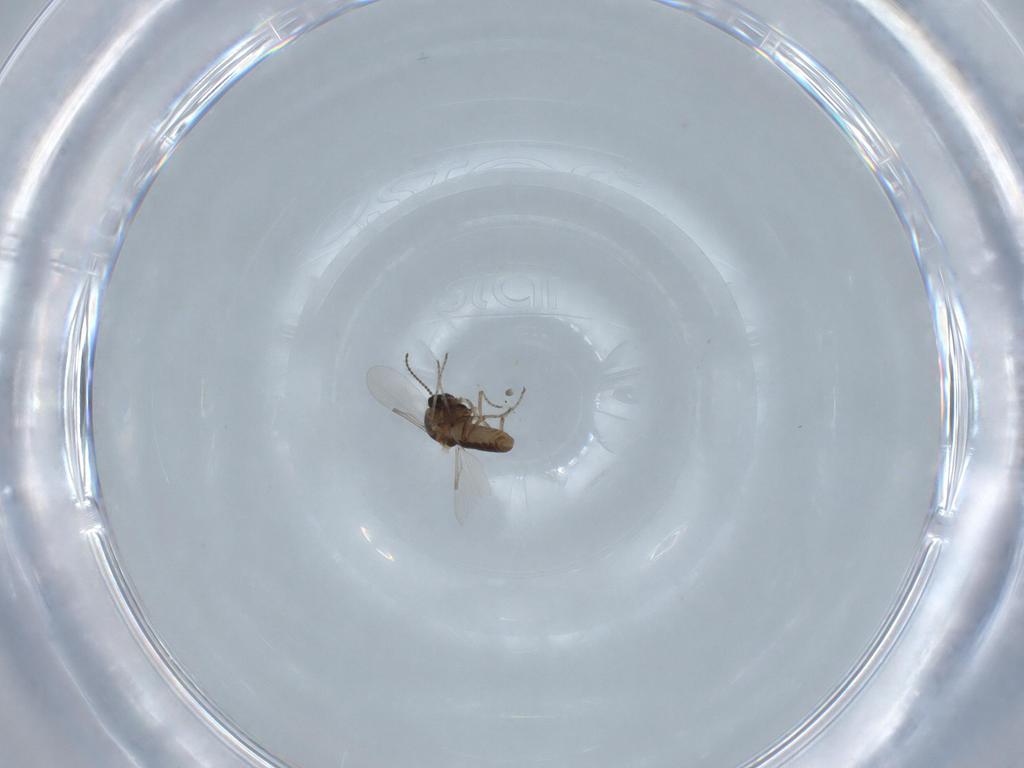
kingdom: Animalia
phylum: Arthropoda
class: Insecta
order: Diptera
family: Ceratopogonidae
